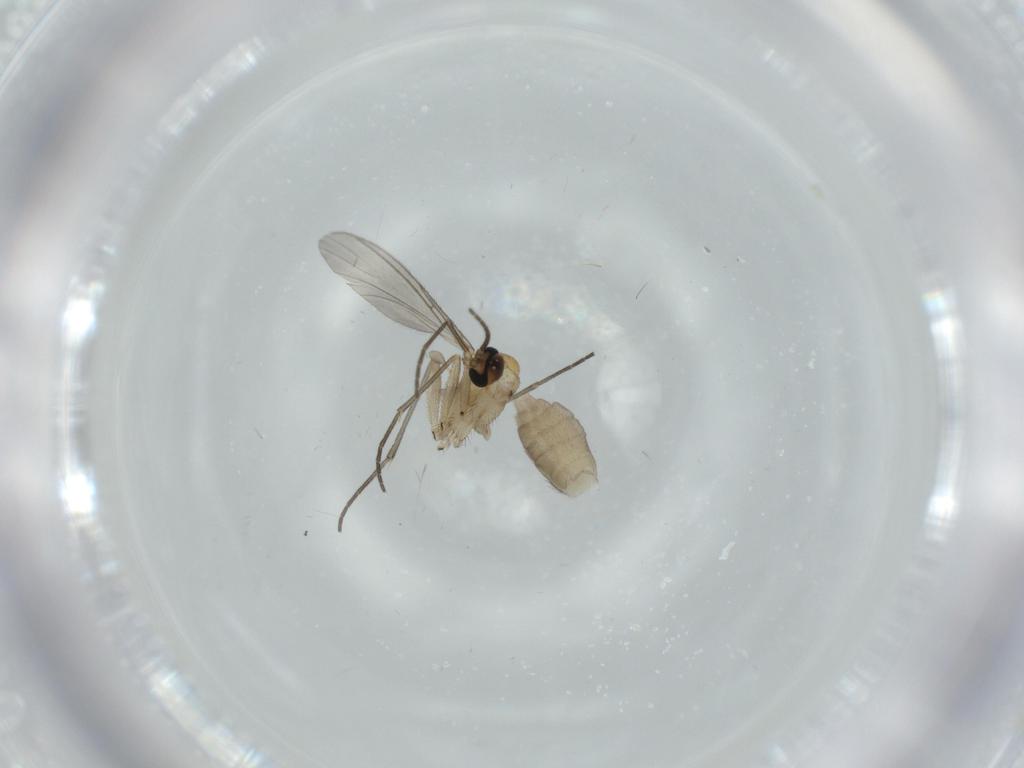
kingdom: Animalia
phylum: Arthropoda
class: Insecta
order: Diptera
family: Sciaridae
